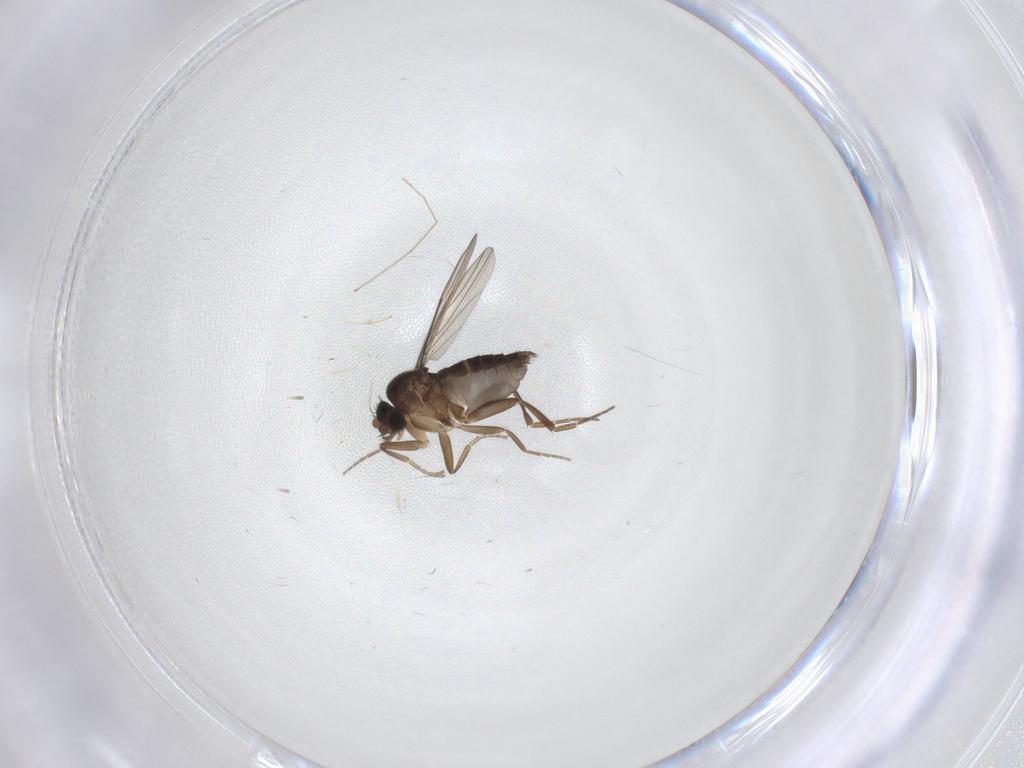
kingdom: Animalia
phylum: Arthropoda
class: Insecta
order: Diptera
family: Phoridae
